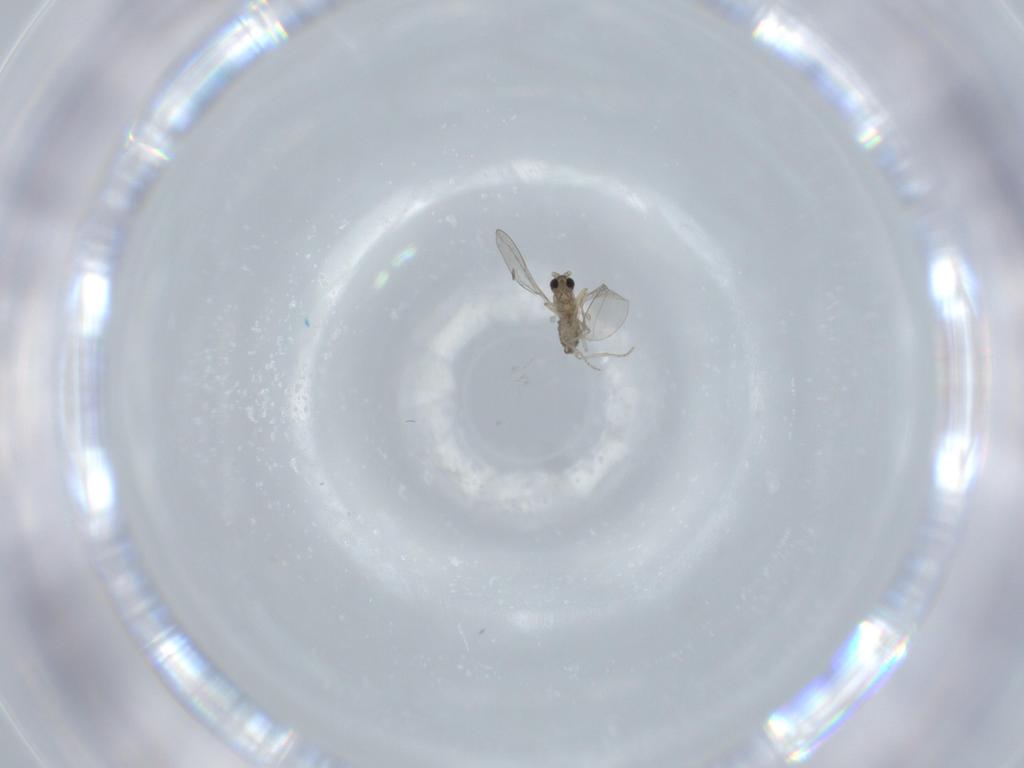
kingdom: Animalia
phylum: Arthropoda
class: Insecta
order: Diptera
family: Cecidomyiidae
